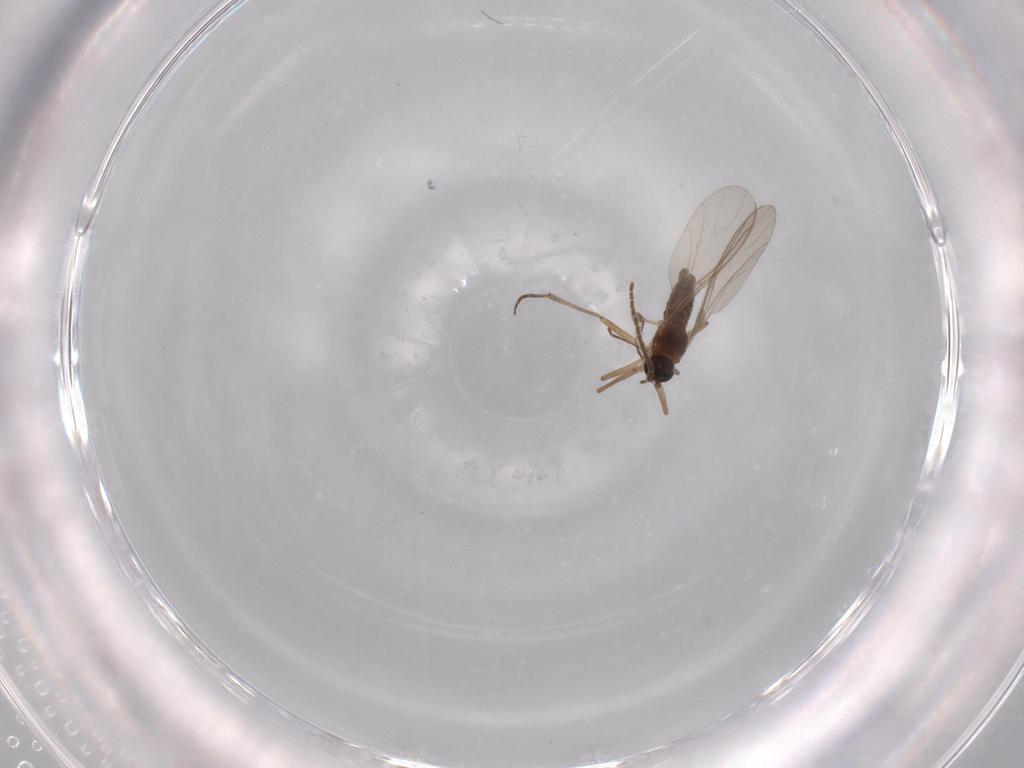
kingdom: Animalia
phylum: Arthropoda
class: Insecta
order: Diptera
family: Sciaridae
